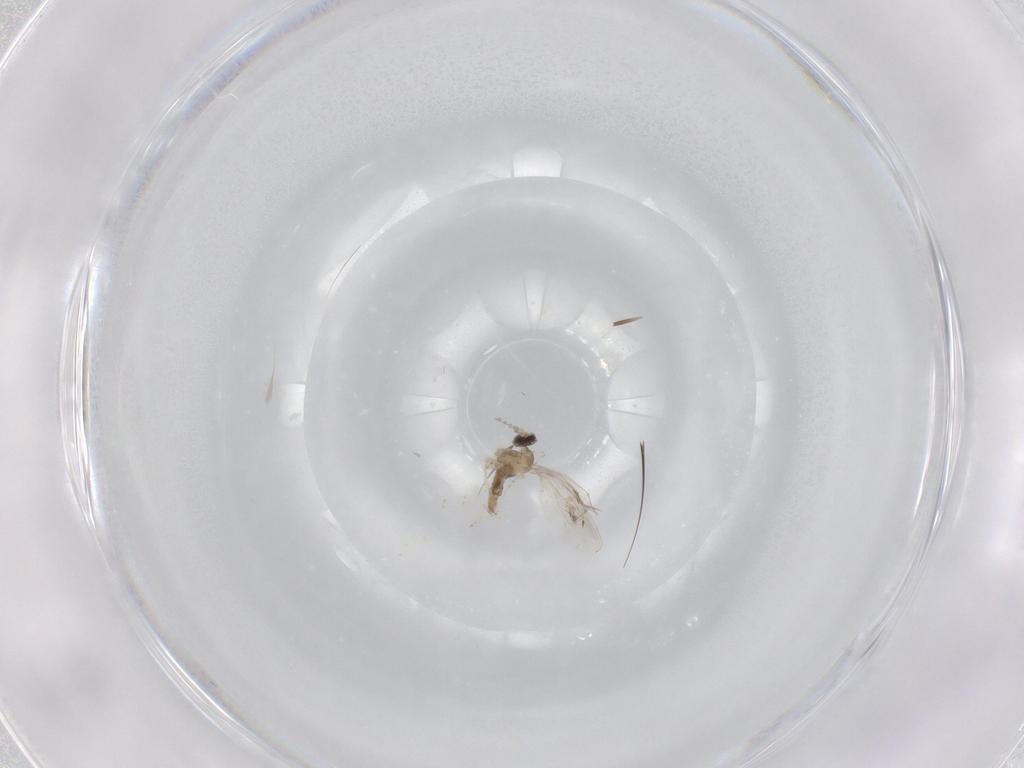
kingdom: Animalia
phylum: Arthropoda
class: Insecta
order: Diptera
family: Cecidomyiidae
